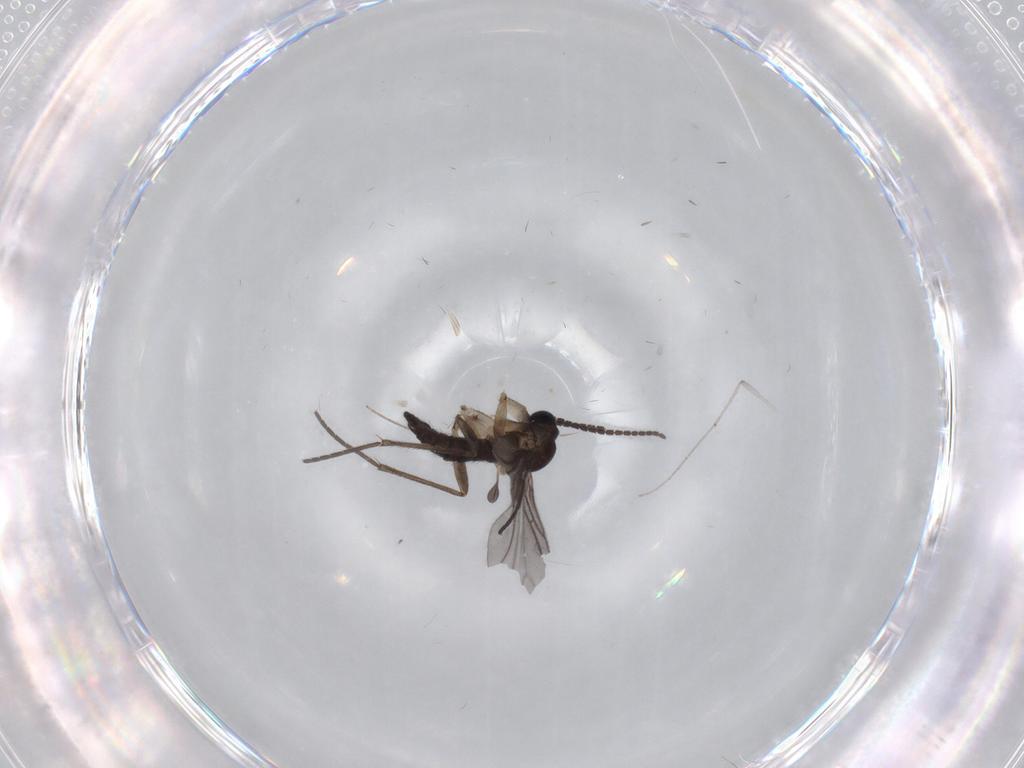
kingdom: Animalia
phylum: Arthropoda
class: Insecta
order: Diptera
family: Sciaridae
